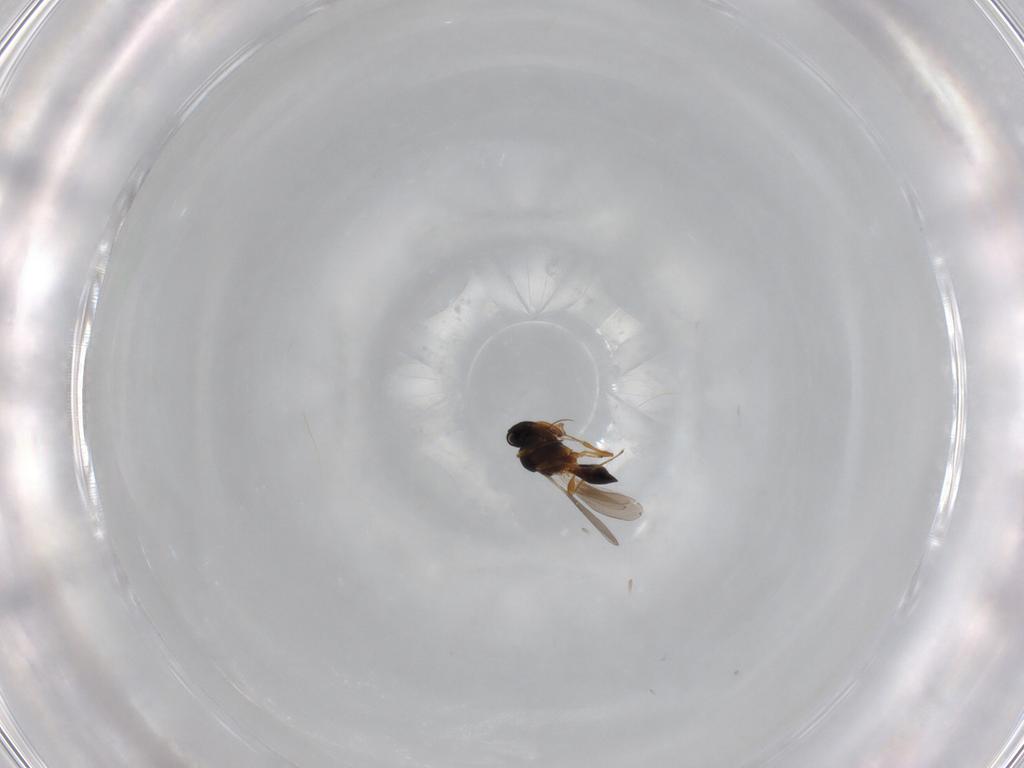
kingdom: Animalia
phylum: Arthropoda
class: Insecta
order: Hymenoptera
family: Platygastridae
